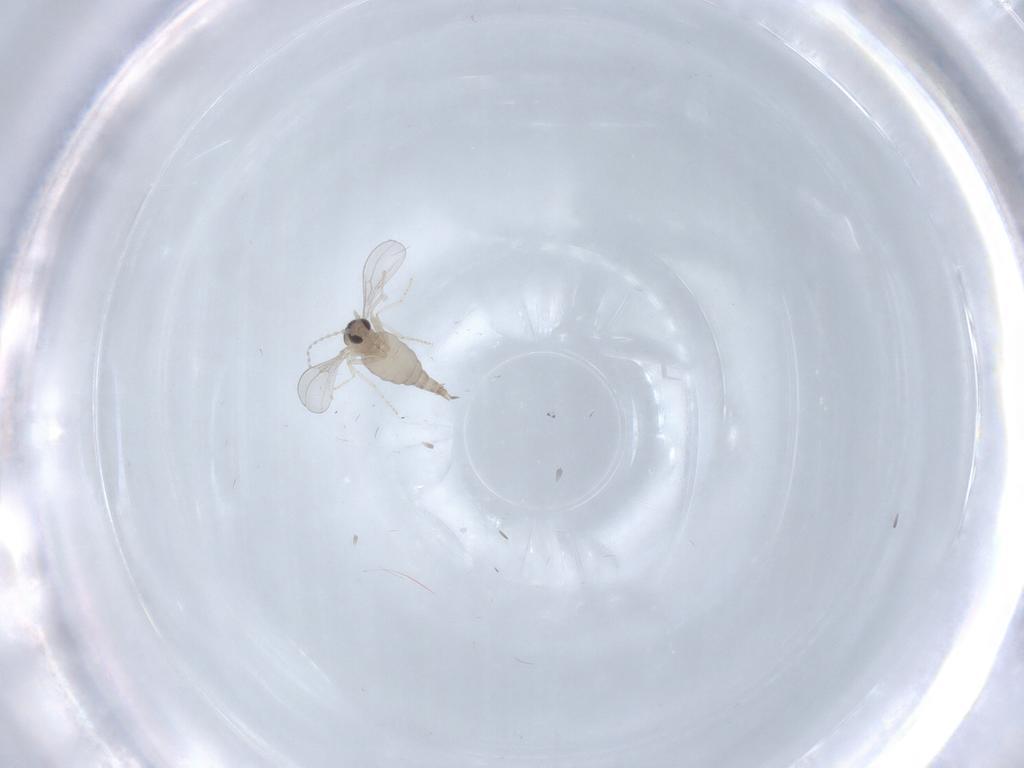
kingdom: Animalia
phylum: Arthropoda
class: Insecta
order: Diptera
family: Cecidomyiidae
